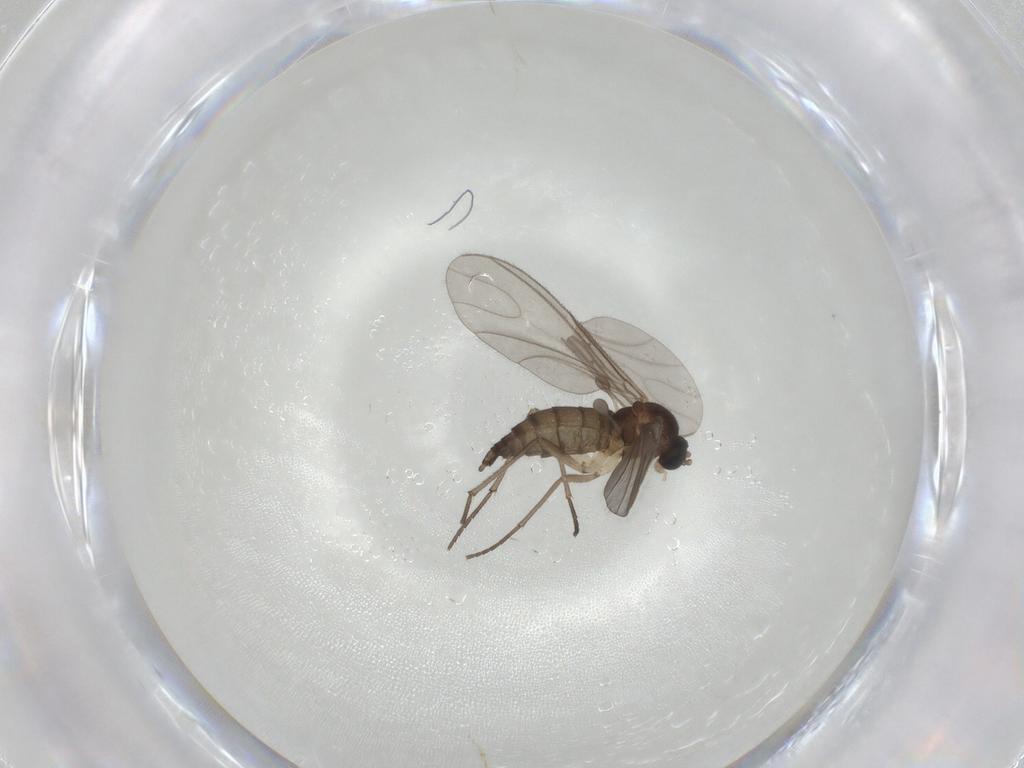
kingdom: Animalia
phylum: Arthropoda
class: Insecta
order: Diptera
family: Sciaridae
